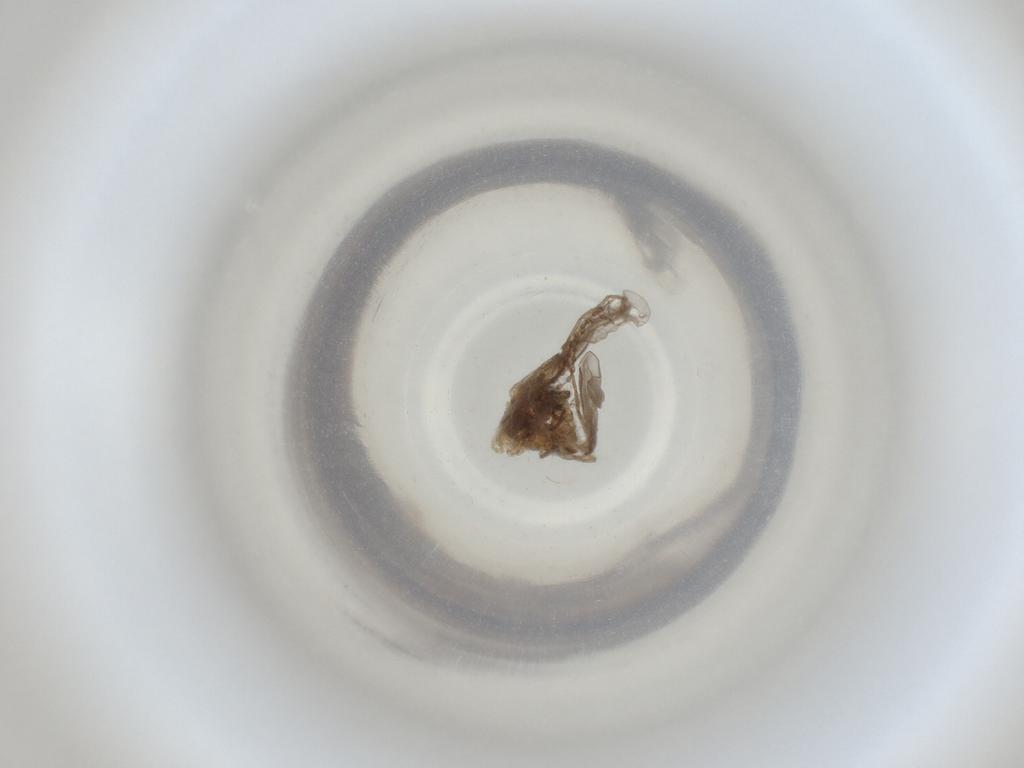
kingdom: Animalia
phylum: Arthropoda
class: Insecta
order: Diptera
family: Cecidomyiidae
